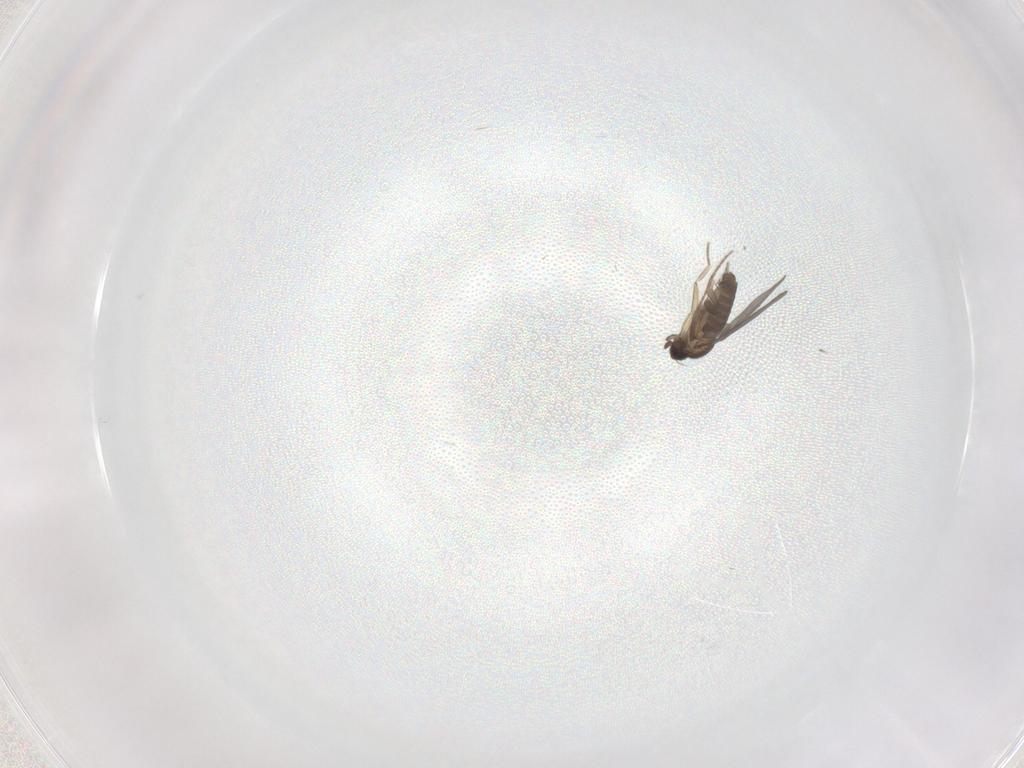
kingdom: Animalia
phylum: Arthropoda
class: Insecta
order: Diptera
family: Phoridae
